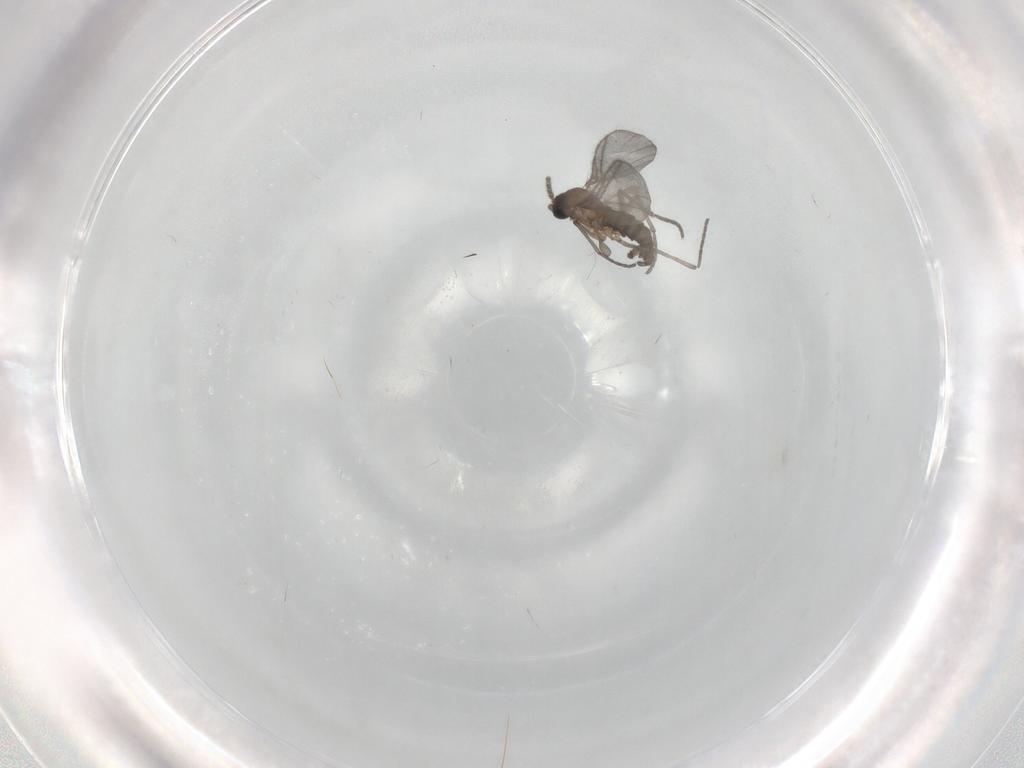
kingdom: Animalia
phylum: Arthropoda
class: Insecta
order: Diptera
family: Sciaridae
